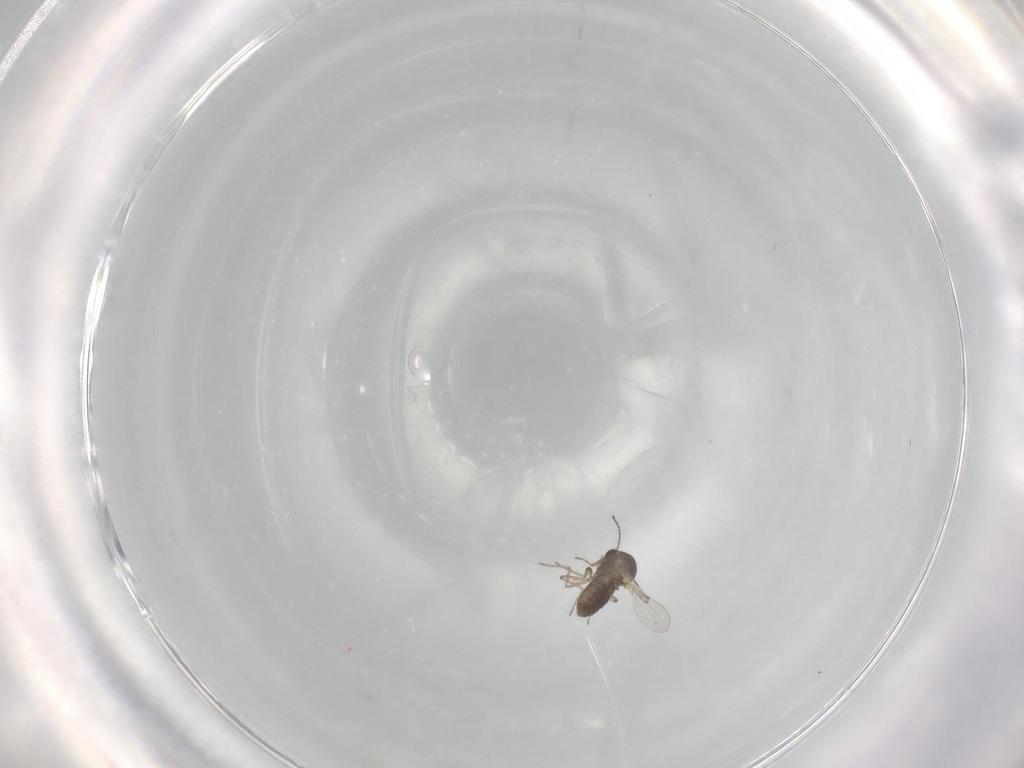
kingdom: Animalia
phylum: Arthropoda
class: Insecta
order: Diptera
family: Ceratopogonidae
